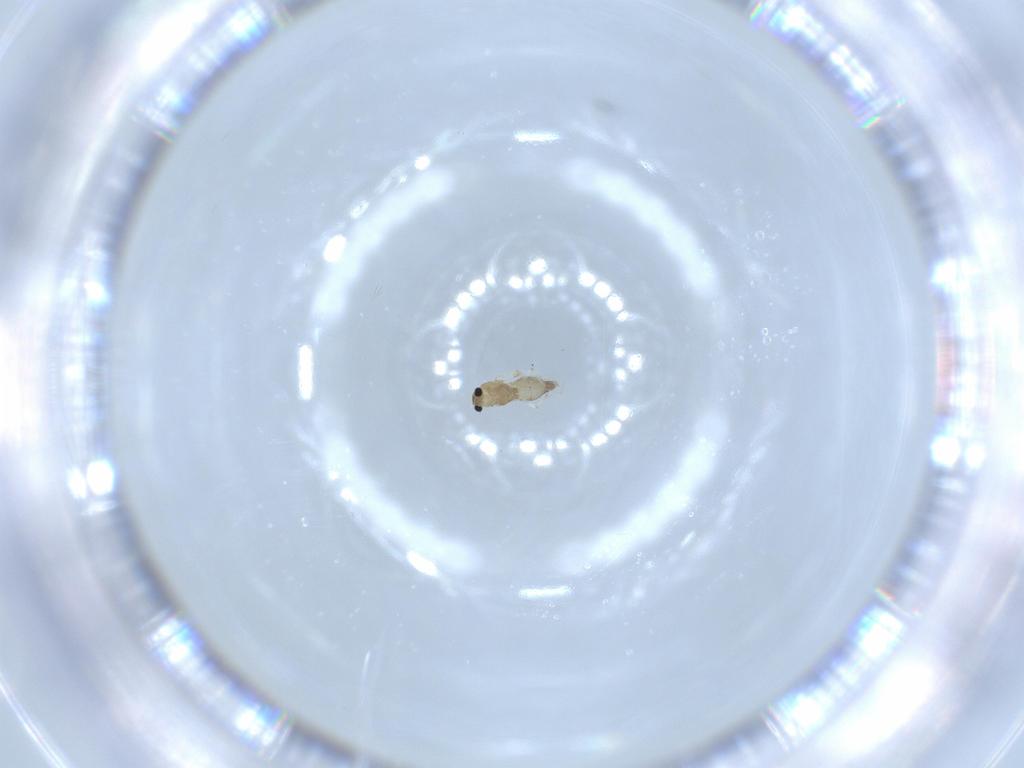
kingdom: Animalia
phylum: Arthropoda
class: Insecta
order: Diptera
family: Chironomidae
